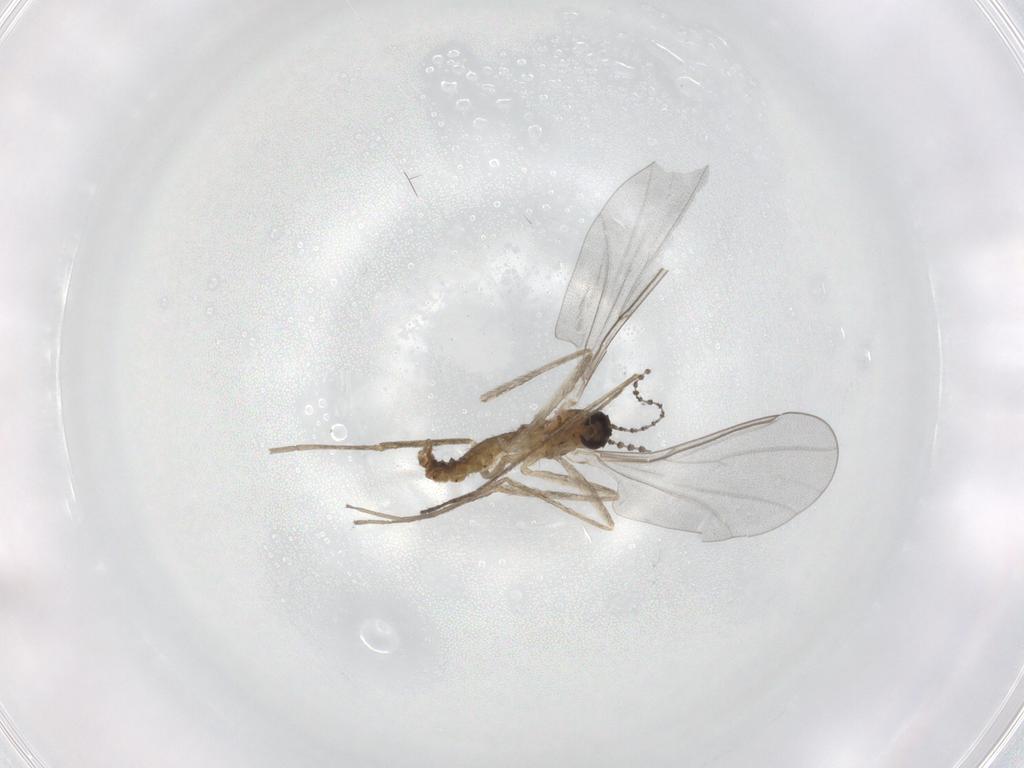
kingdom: Animalia
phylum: Arthropoda
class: Insecta
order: Diptera
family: Cecidomyiidae
